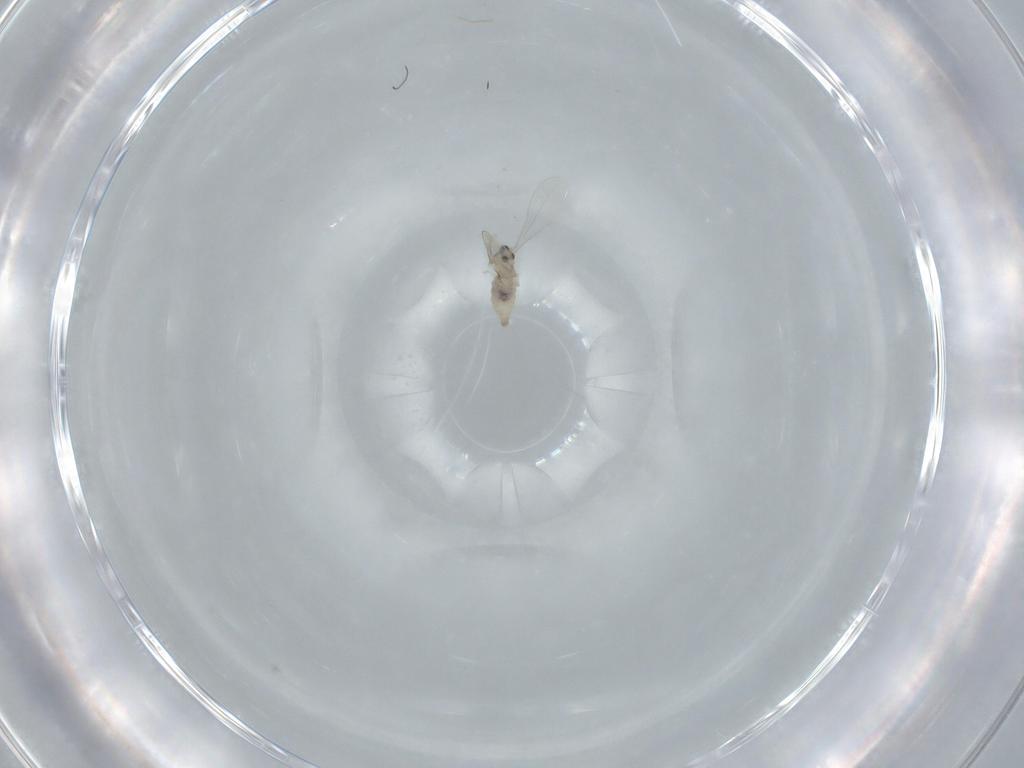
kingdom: Animalia
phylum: Arthropoda
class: Insecta
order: Diptera
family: Cecidomyiidae
